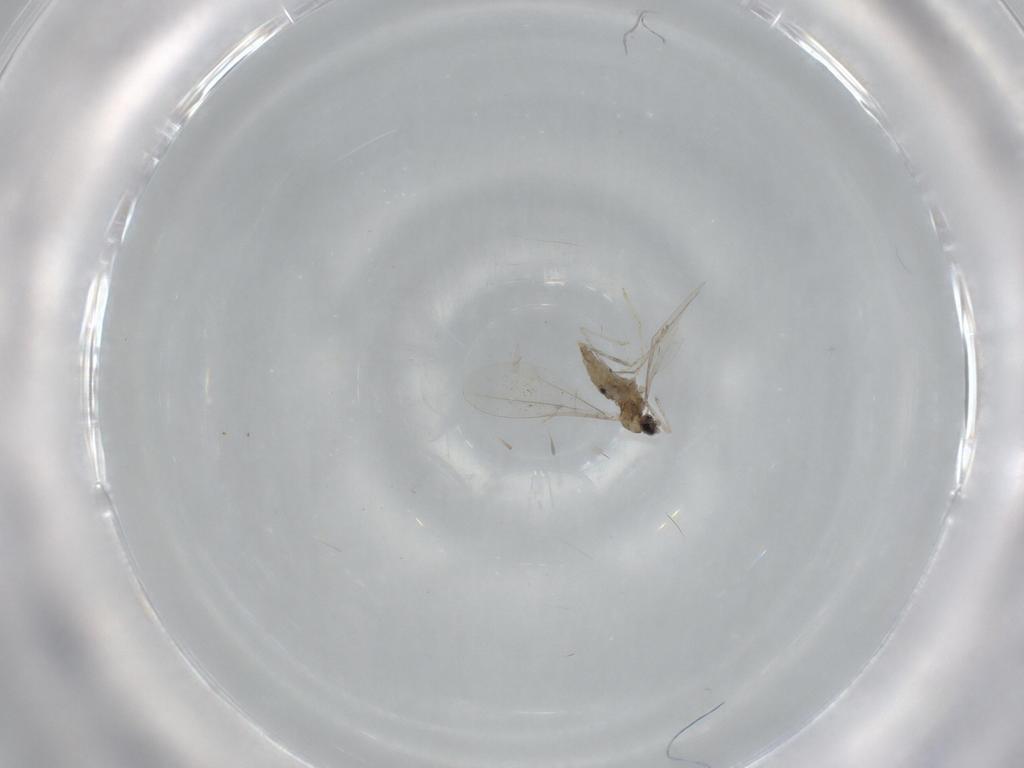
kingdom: Animalia
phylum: Arthropoda
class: Insecta
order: Diptera
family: Cecidomyiidae
